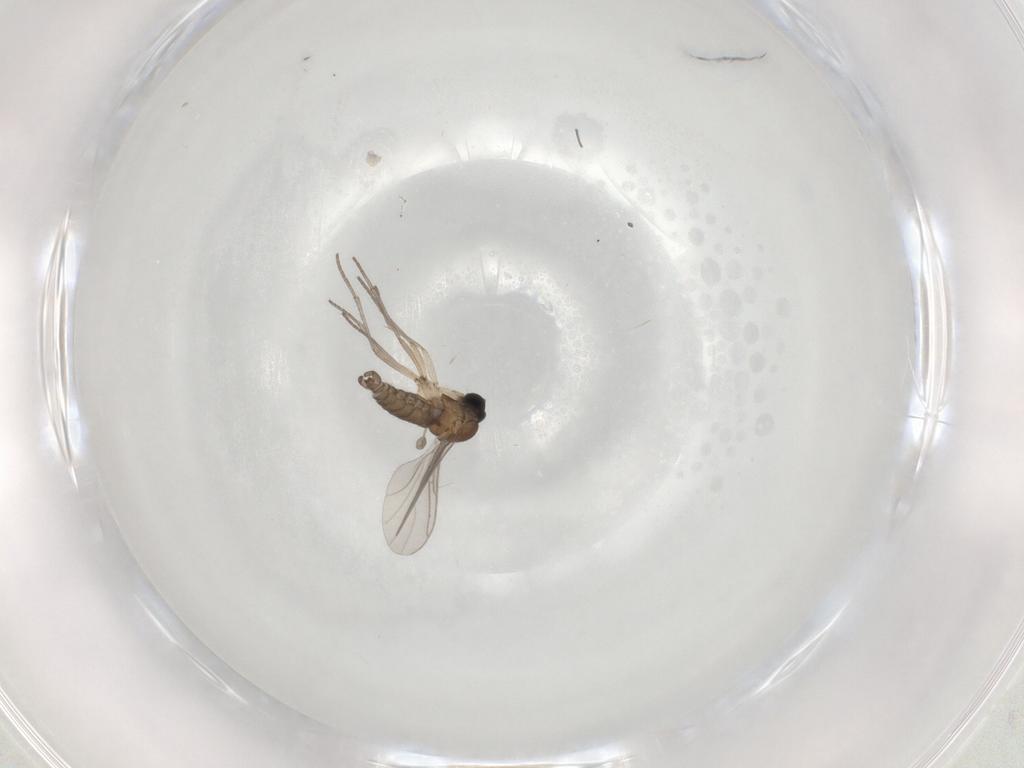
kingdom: Animalia
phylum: Arthropoda
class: Insecta
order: Diptera
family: Sciaridae
